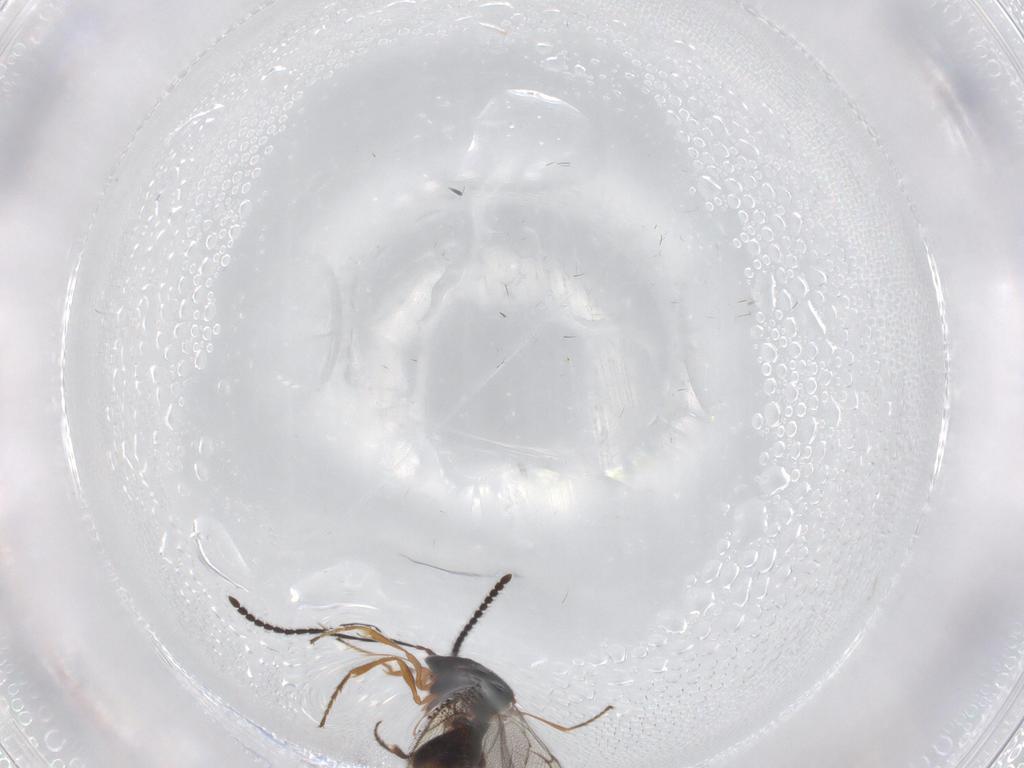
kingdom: Animalia
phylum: Arthropoda
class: Insecta
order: Hymenoptera
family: Diapriidae
